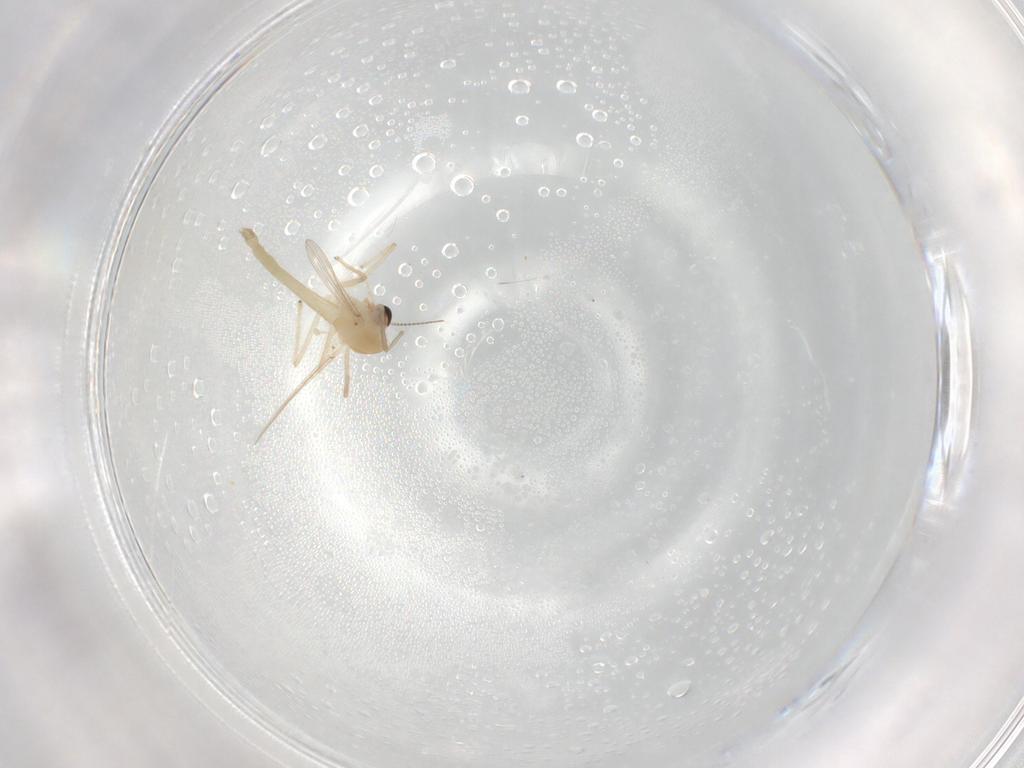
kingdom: Animalia
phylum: Arthropoda
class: Insecta
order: Diptera
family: Chironomidae
